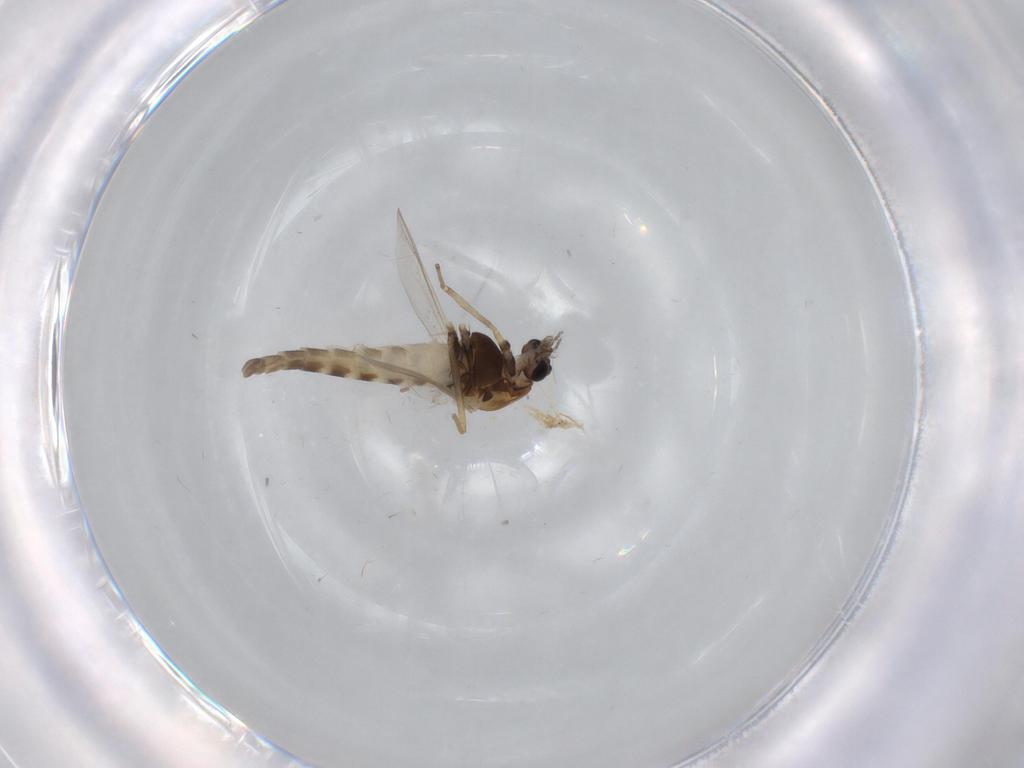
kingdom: Animalia
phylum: Arthropoda
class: Insecta
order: Diptera
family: Chironomidae
